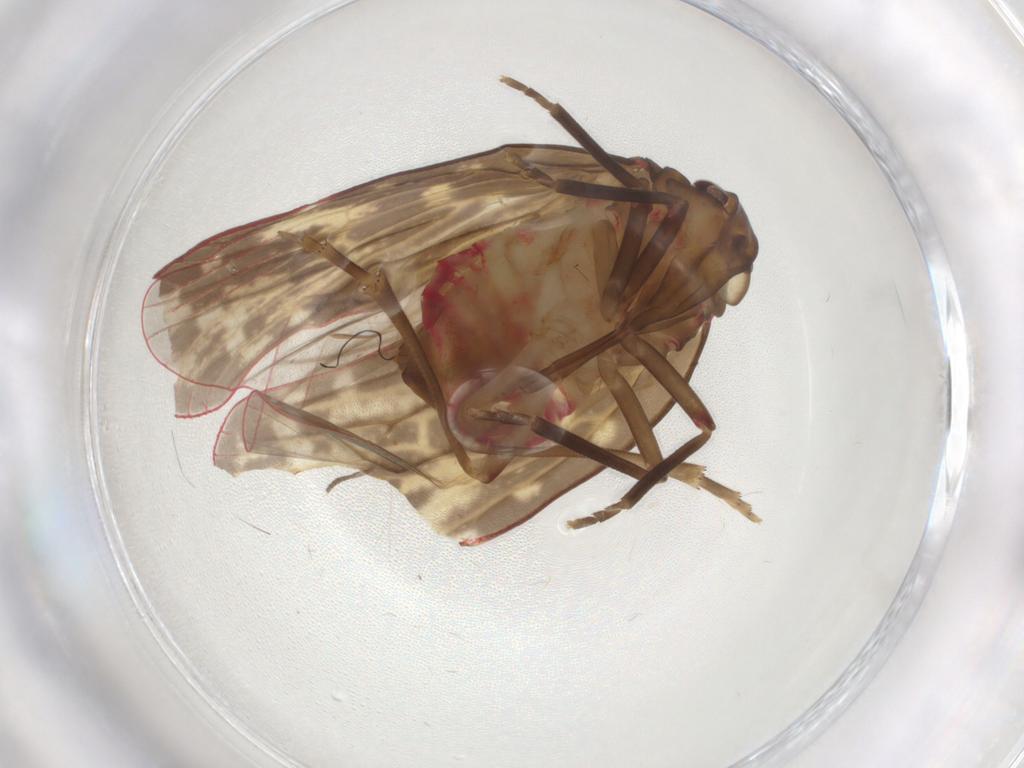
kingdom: Animalia
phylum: Arthropoda
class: Insecta
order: Hemiptera
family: Achilidae
